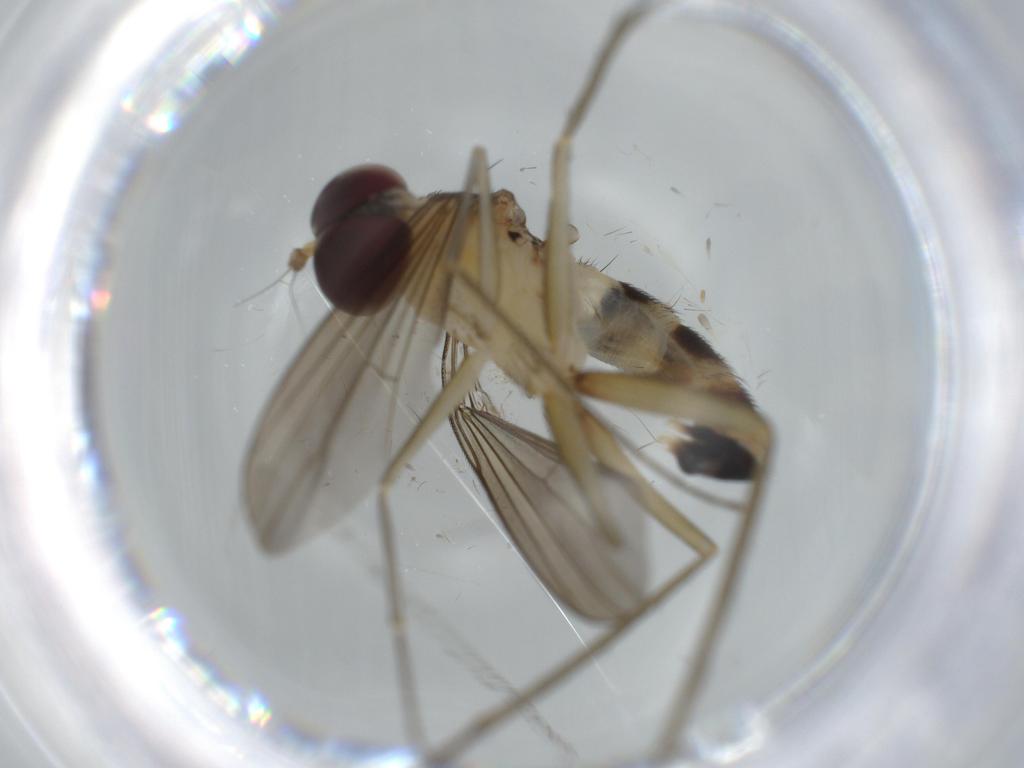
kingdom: Animalia
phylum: Arthropoda
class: Insecta
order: Diptera
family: Dolichopodidae
